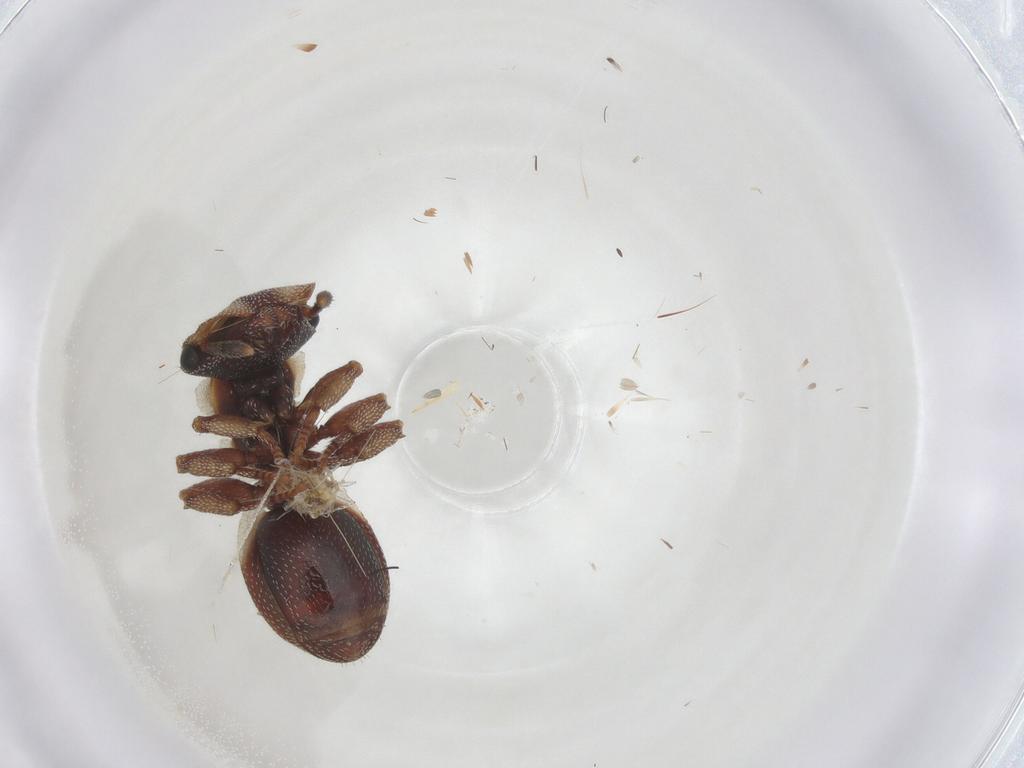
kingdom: Animalia
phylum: Arthropoda
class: Insecta
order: Hymenoptera
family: Formicidae
